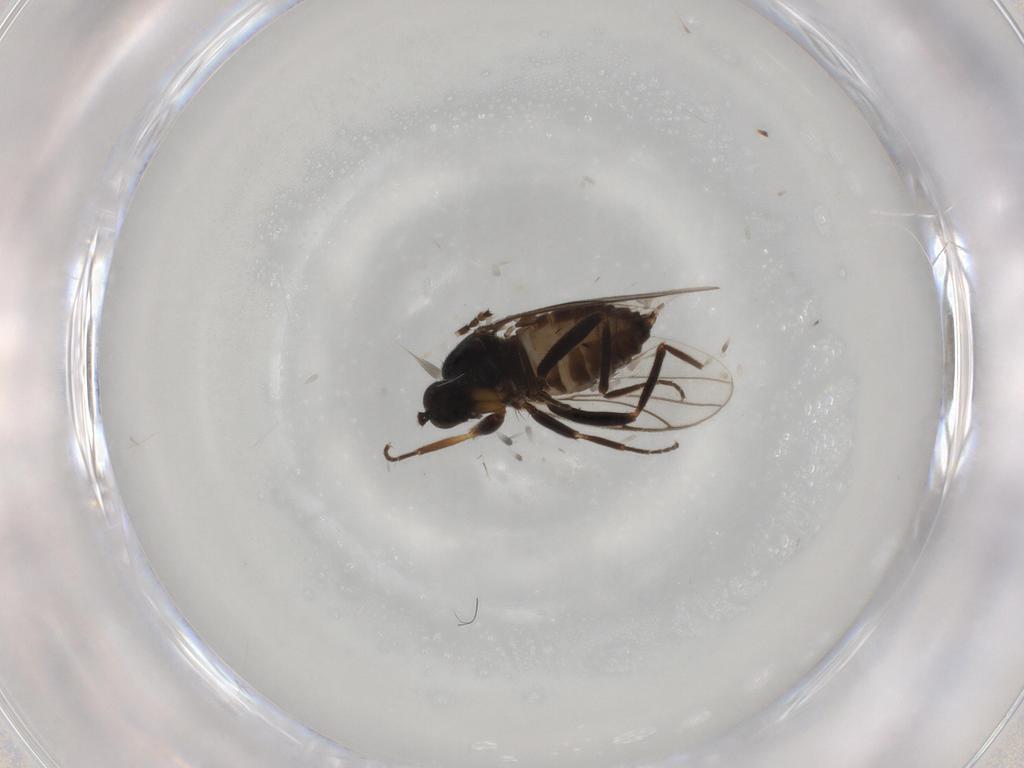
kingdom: Animalia
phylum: Arthropoda
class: Insecta
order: Diptera
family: Hybotidae
